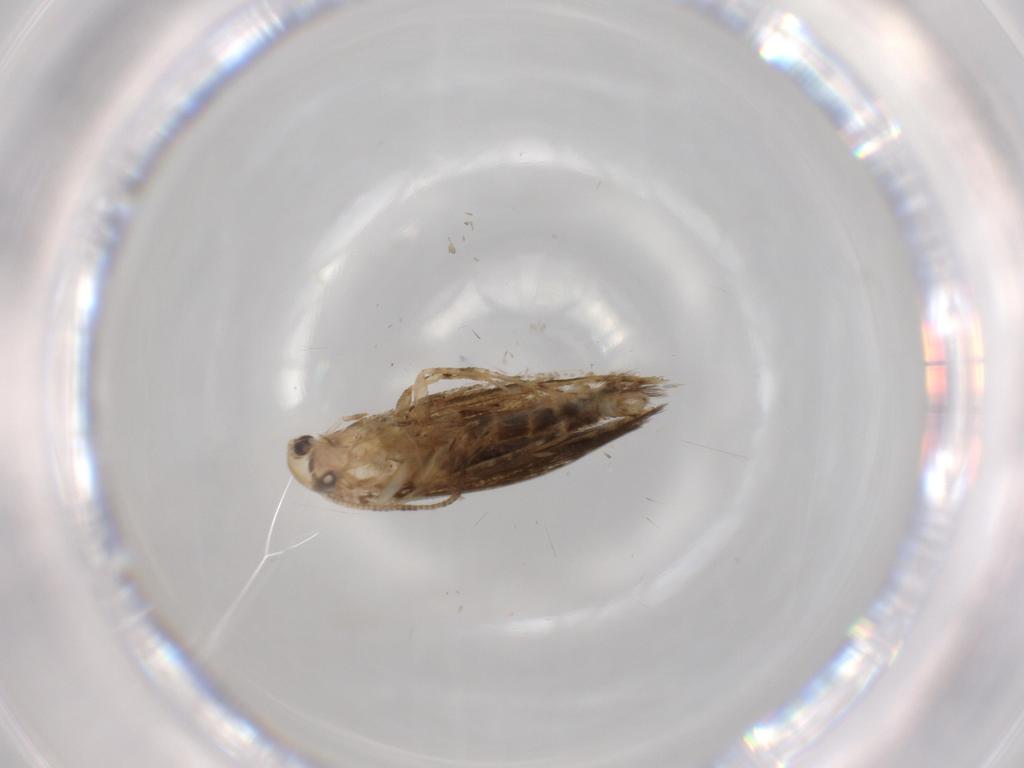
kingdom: Animalia
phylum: Arthropoda
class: Insecta
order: Lepidoptera
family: Tineidae
